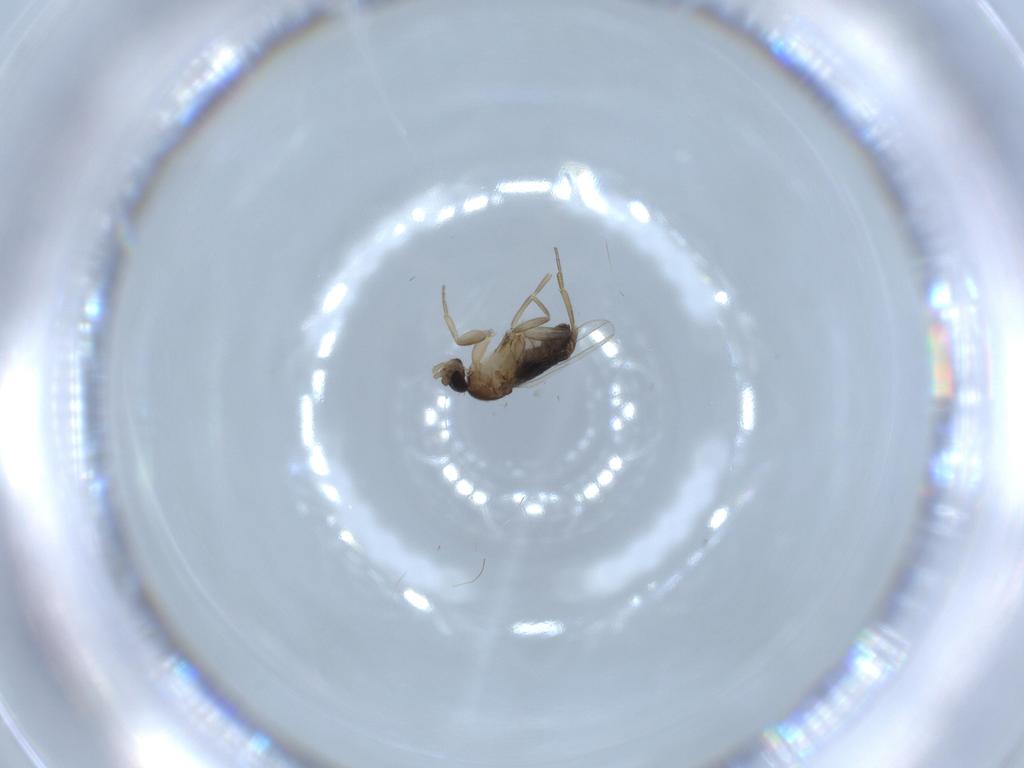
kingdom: Animalia
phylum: Arthropoda
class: Insecta
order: Diptera
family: Phoridae
